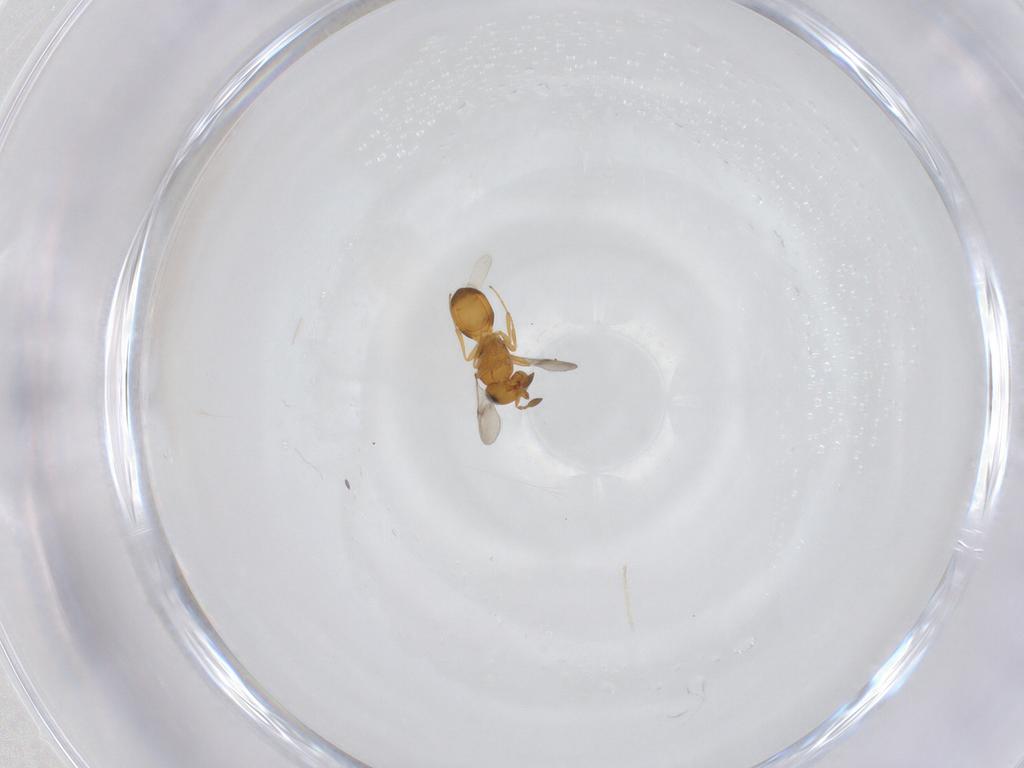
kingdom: Animalia
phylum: Arthropoda
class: Insecta
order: Hymenoptera
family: Scelionidae
